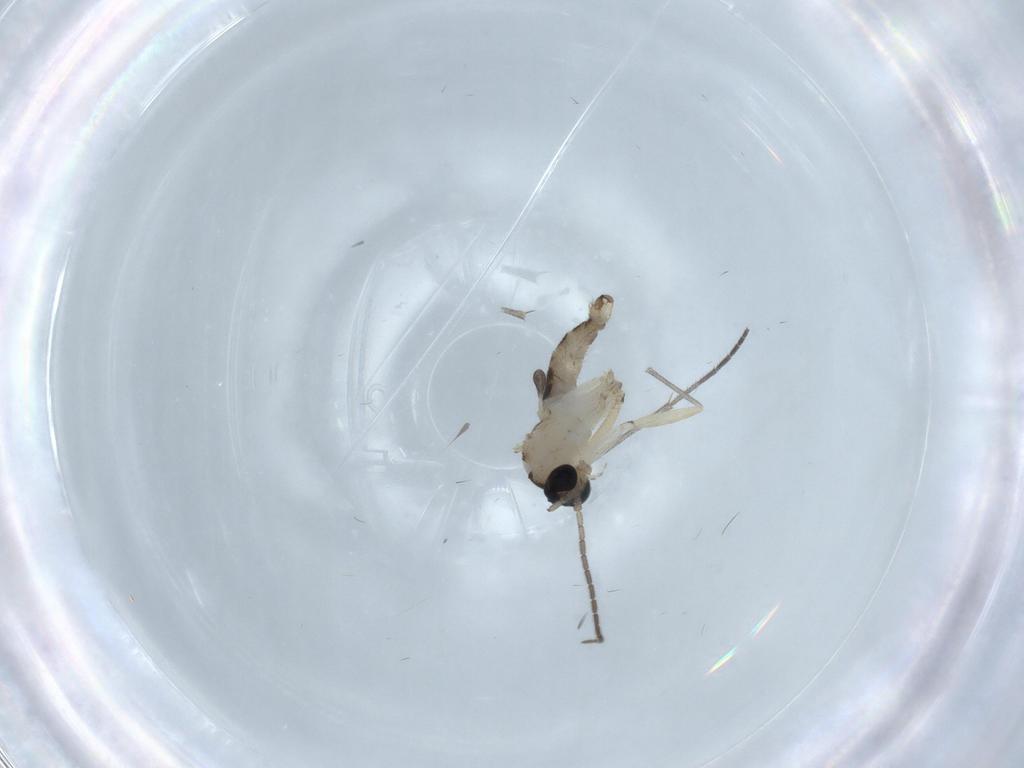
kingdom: Animalia
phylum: Arthropoda
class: Insecta
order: Diptera
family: Sciaridae
